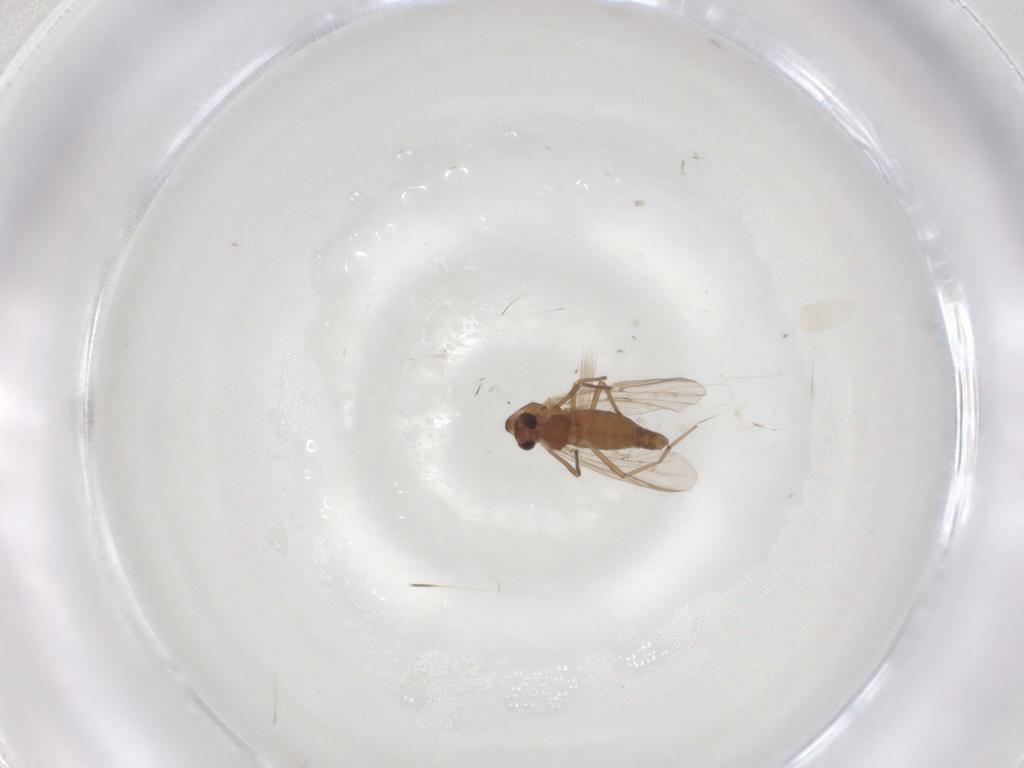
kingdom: Animalia
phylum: Arthropoda
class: Insecta
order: Diptera
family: Chironomidae
